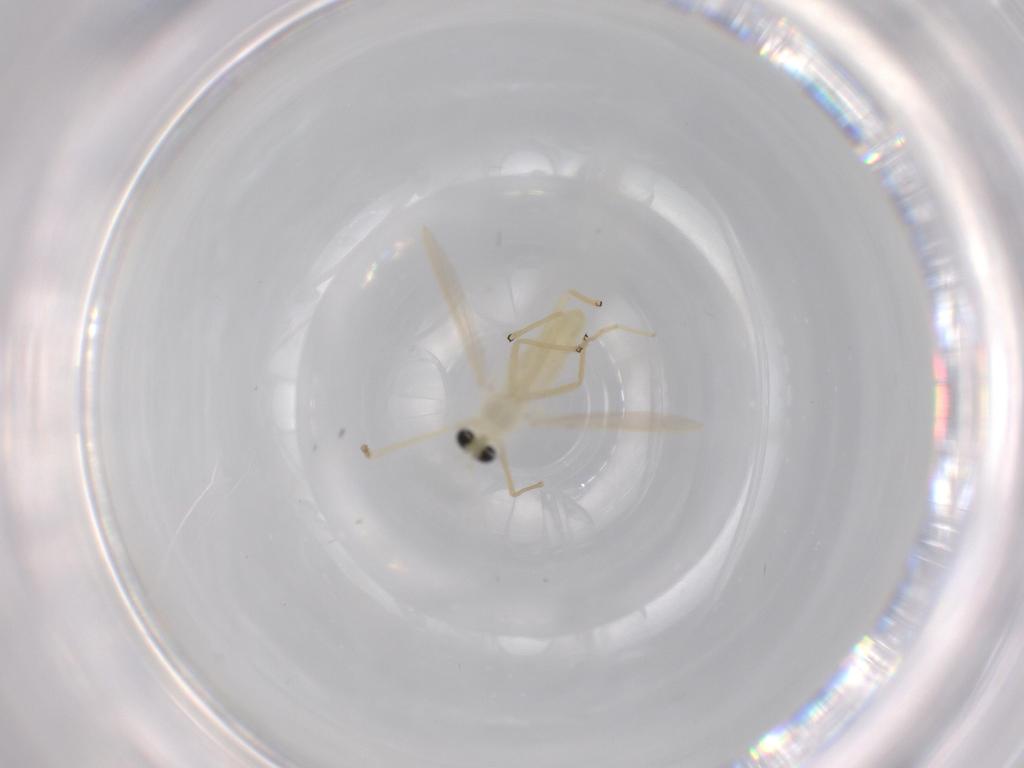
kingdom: Animalia
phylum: Arthropoda
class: Insecta
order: Diptera
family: Chironomidae
